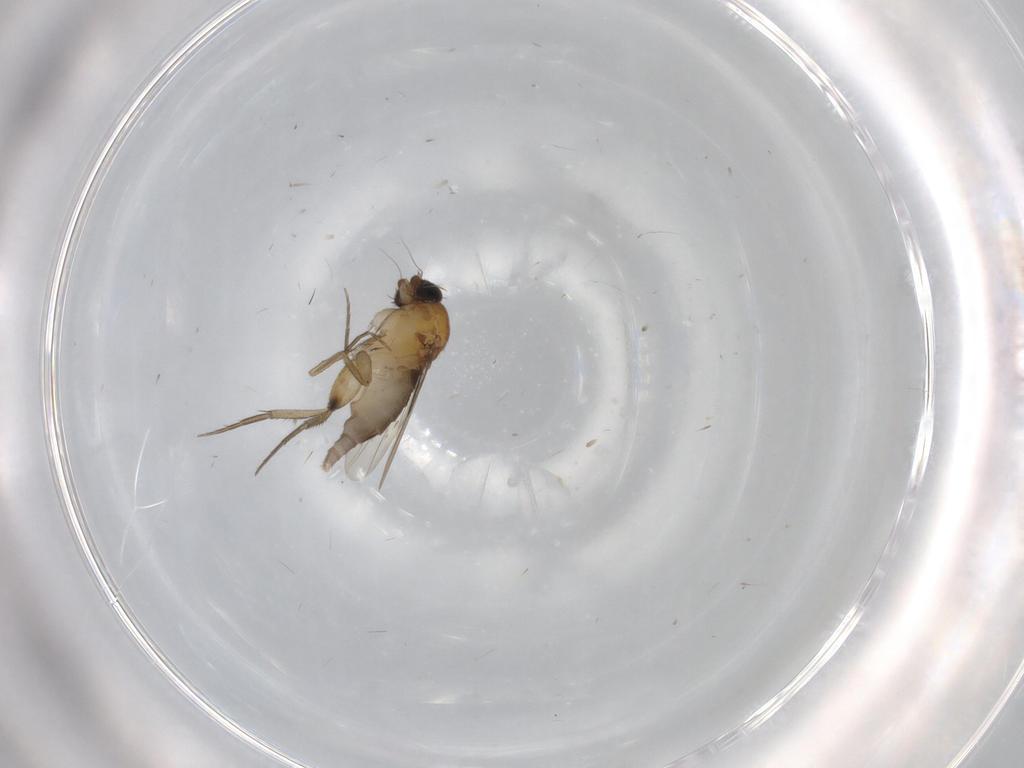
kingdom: Animalia
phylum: Arthropoda
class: Insecta
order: Diptera
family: Phoridae
